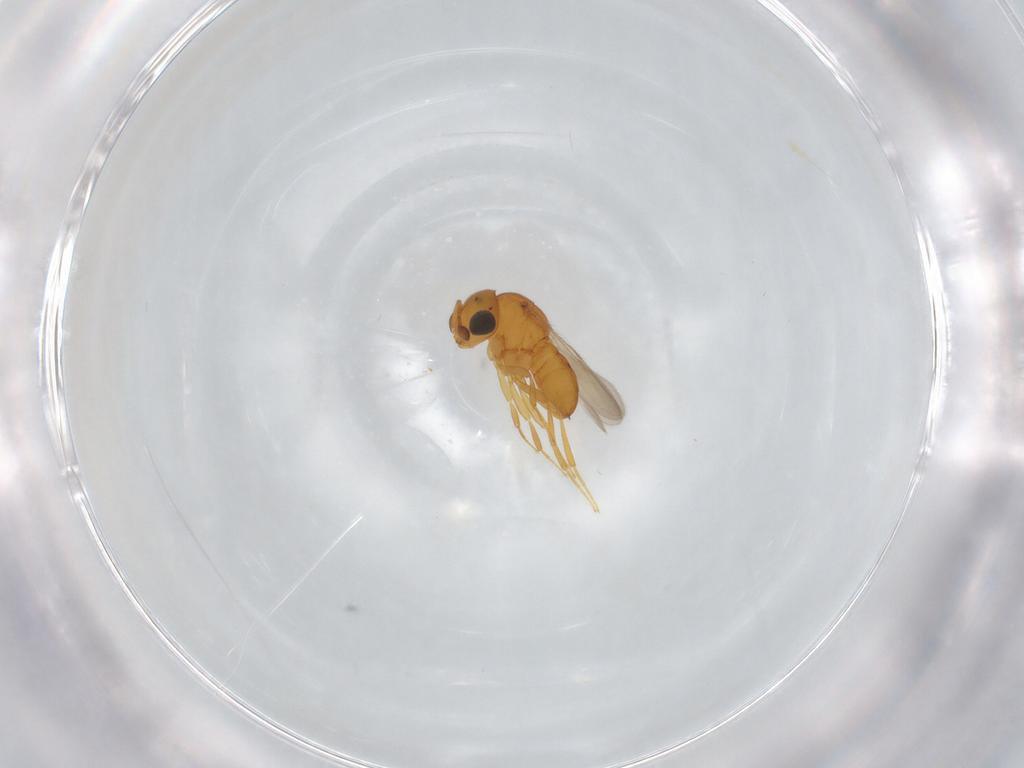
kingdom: Animalia
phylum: Arthropoda
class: Insecta
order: Hymenoptera
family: Scelionidae
